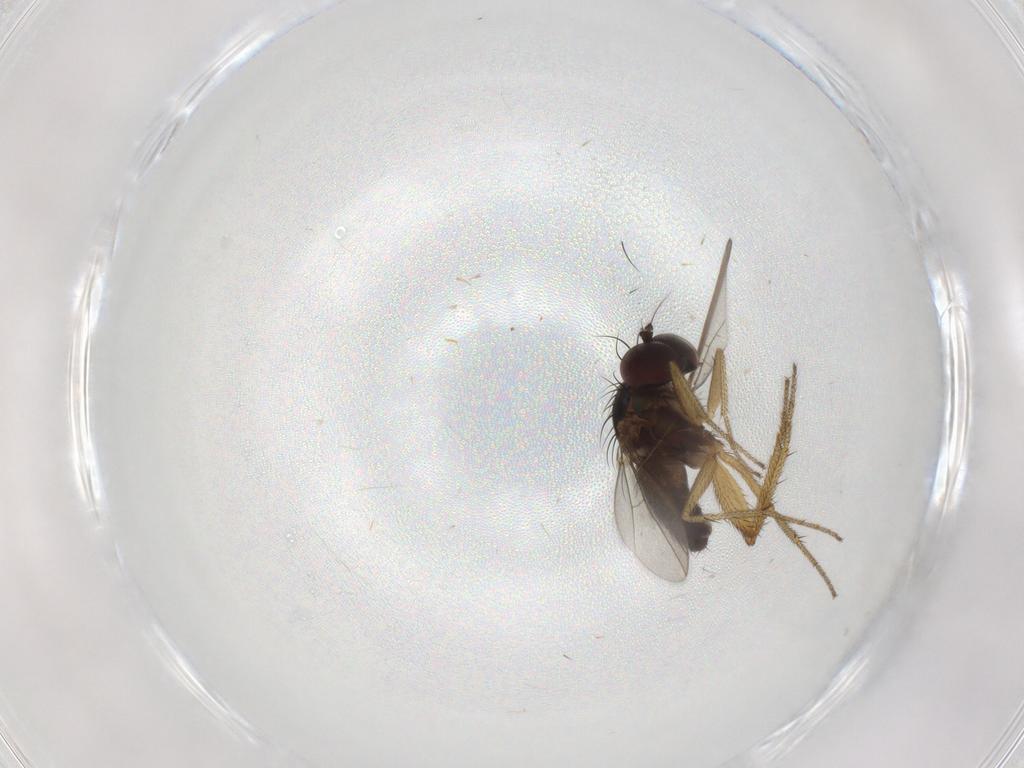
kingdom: Animalia
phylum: Arthropoda
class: Insecta
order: Diptera
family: Dolichopodidae
